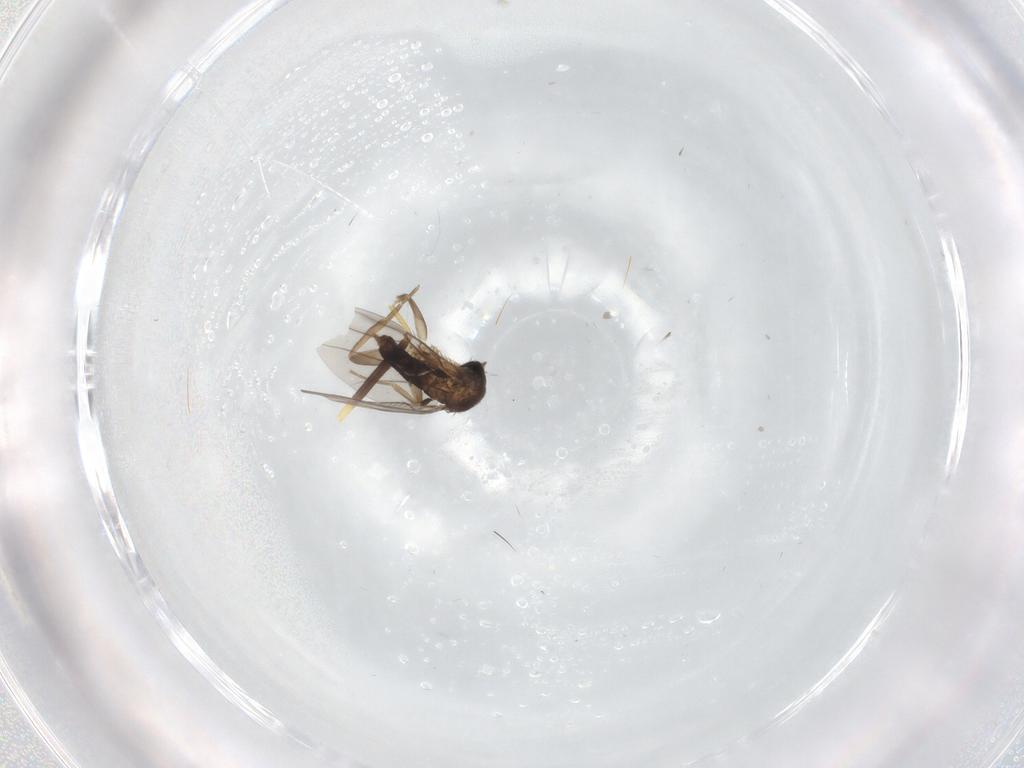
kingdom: Animalia
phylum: Arthropoda
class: Insecta
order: Diptera
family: Phoridae
